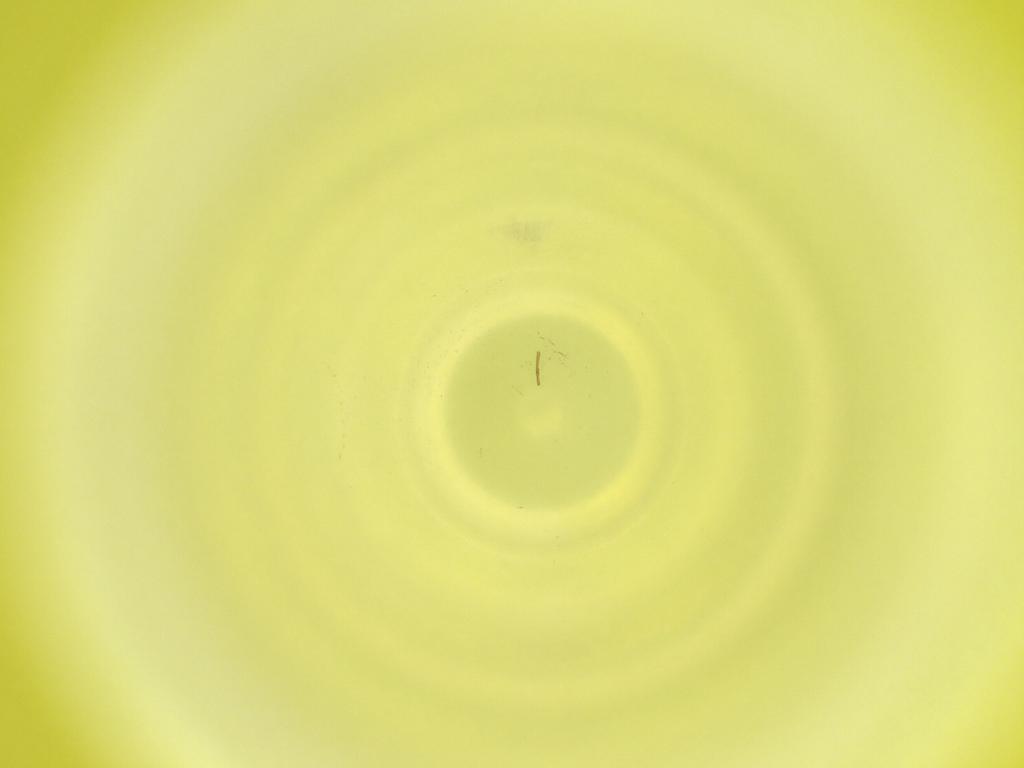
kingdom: Animalia
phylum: Arthropoda
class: Insecta
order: Diptera
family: Cecidomyiidae
